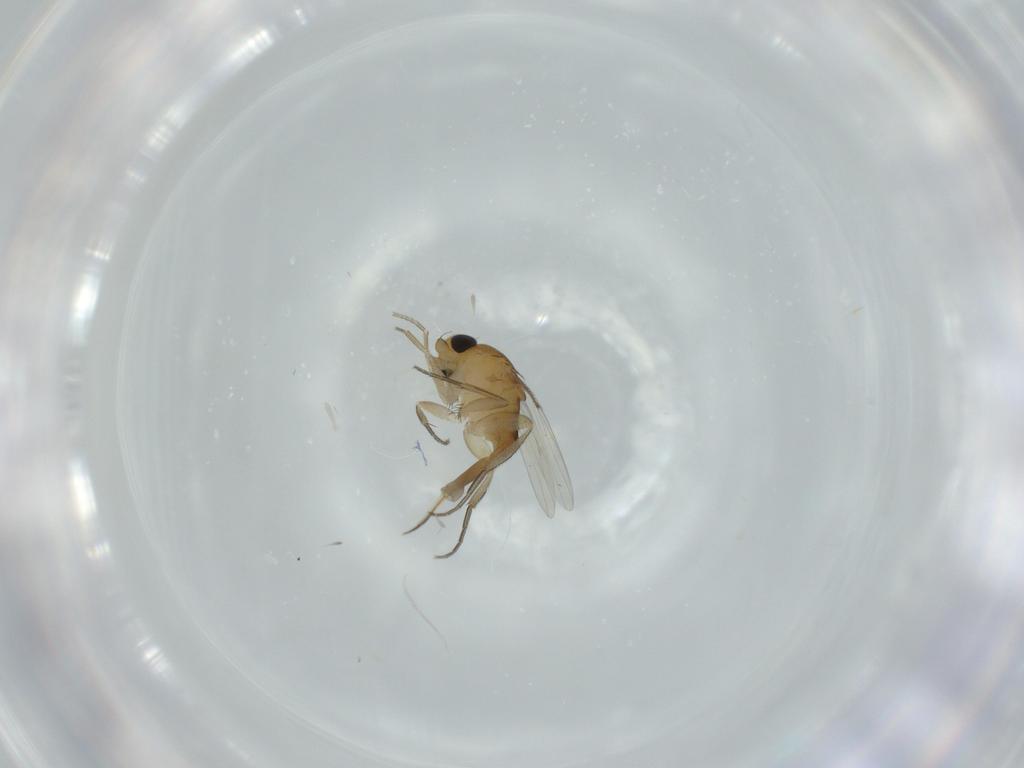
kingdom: Animalia
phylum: Arthropoda
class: Insecta
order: Diptera
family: Phoridae
